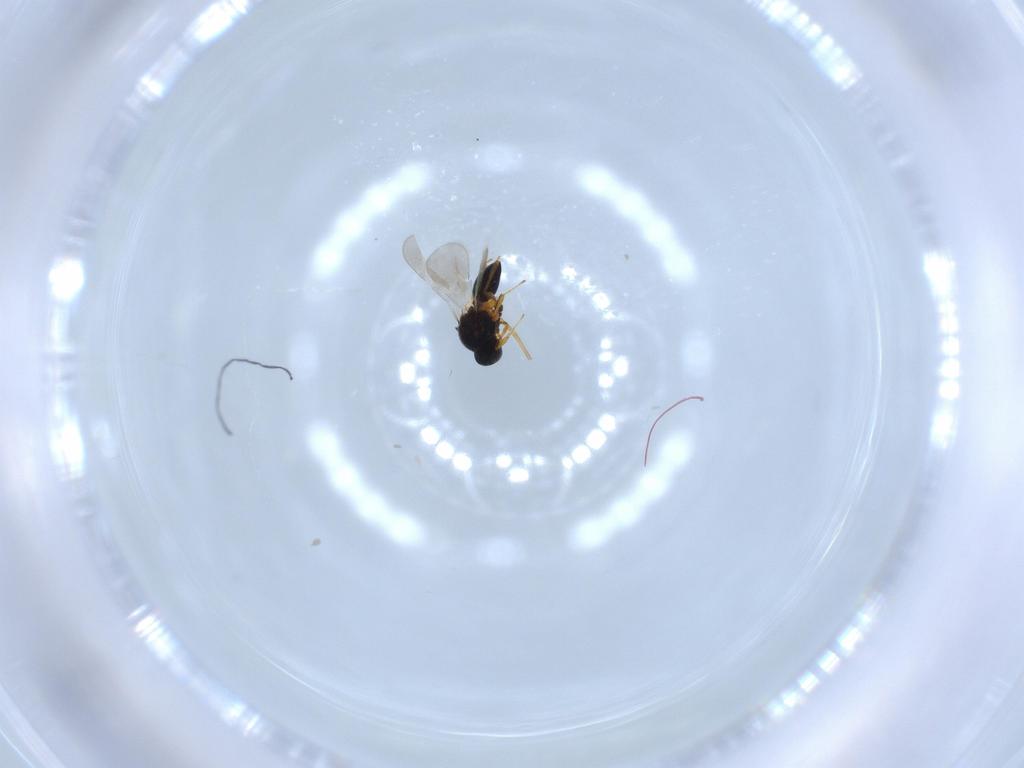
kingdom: Animalia
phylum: Arthropoda
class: Insecta
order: Hymenoptera
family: Platygastridae
